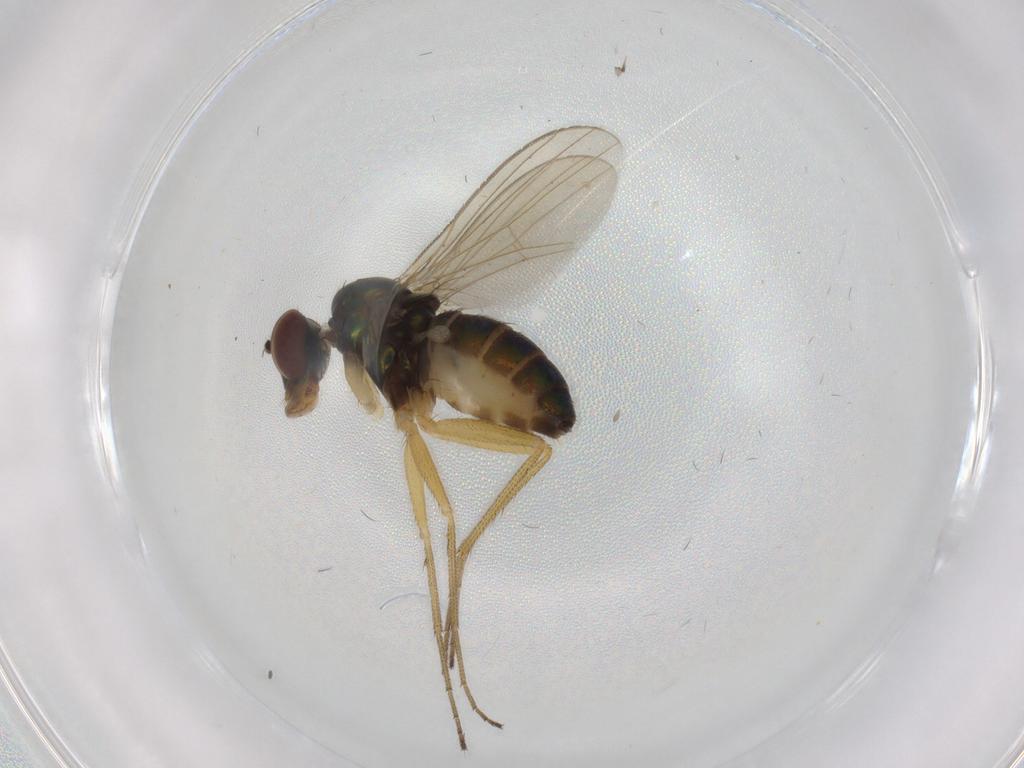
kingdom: Animalia
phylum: Arthropoda
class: Insecta
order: Diptera
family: Dolichopodidae
